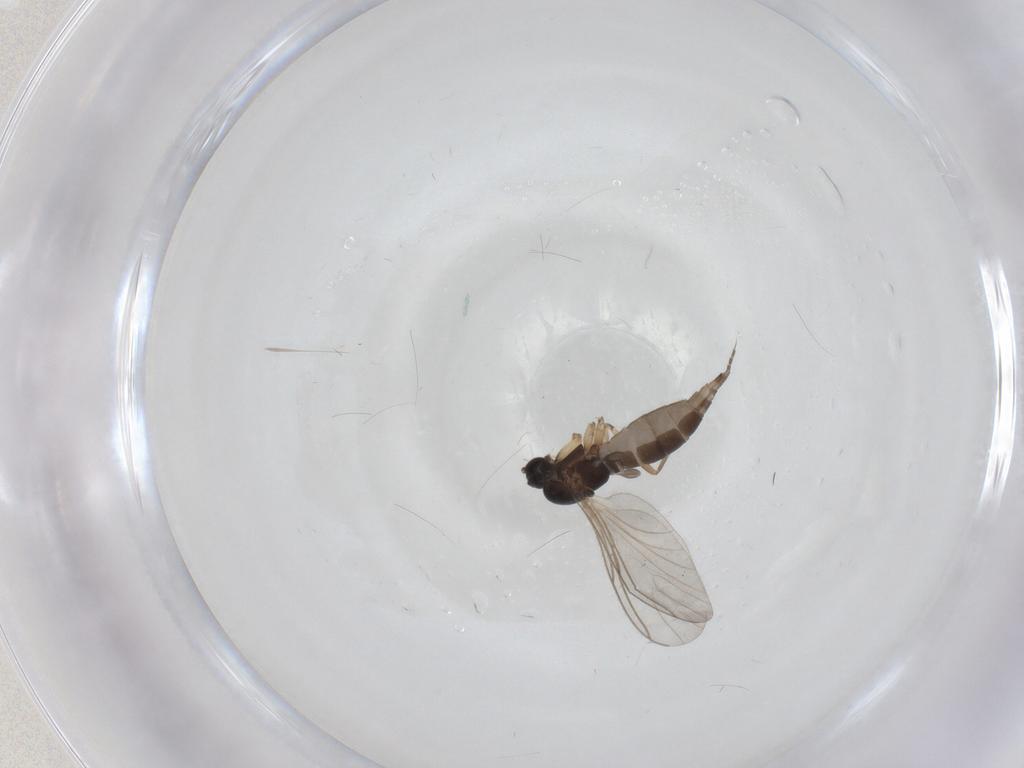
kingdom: Animalia
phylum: Arthropoda
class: Insecta
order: Diptera
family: Sciaridae
